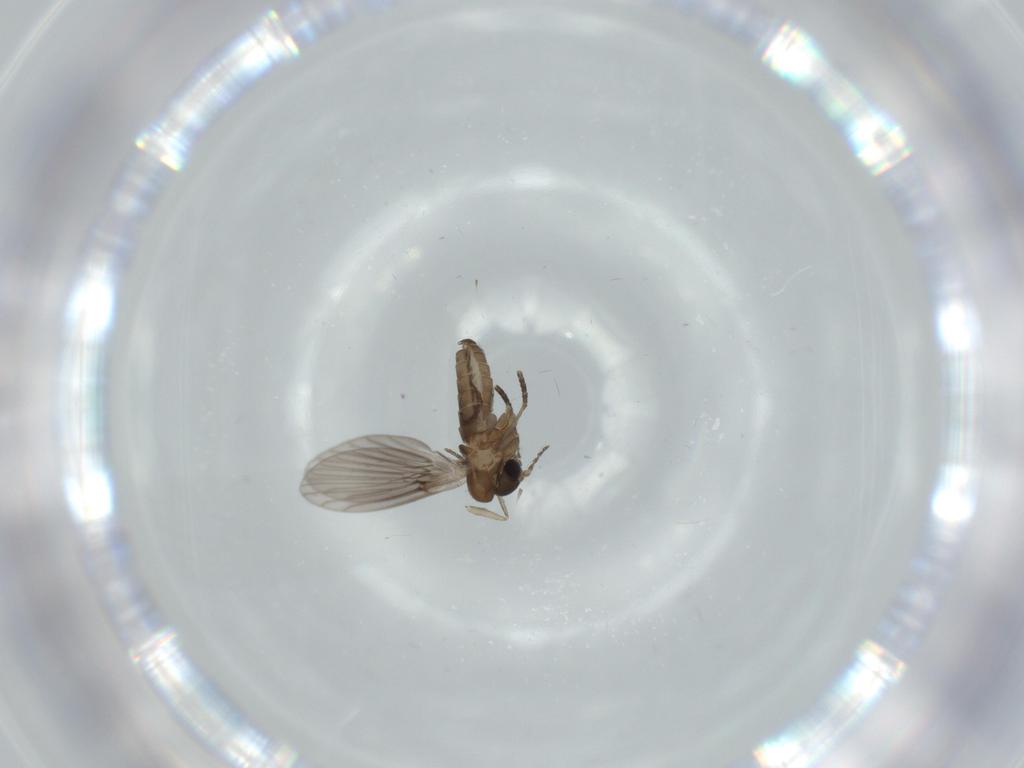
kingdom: Animalia
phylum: Arthropoda
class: Insecta
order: Diptera
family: Psychodidae
